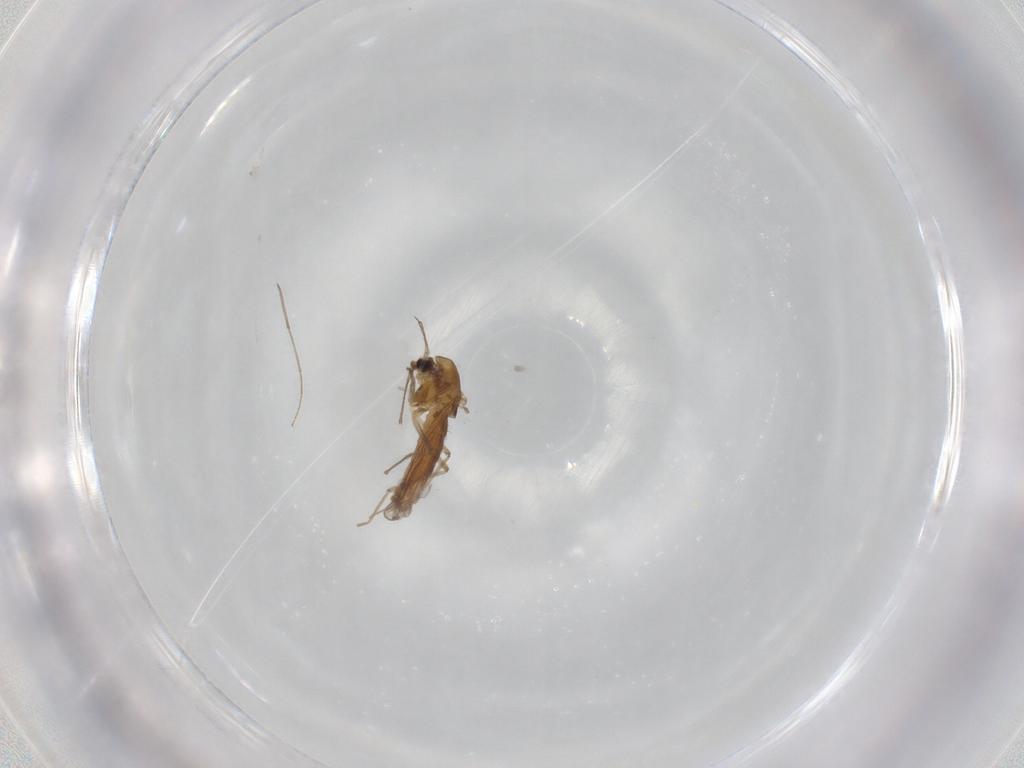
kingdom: Animalia
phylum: Arthropoda
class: Insecta
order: Diptera
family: Chironomidae
